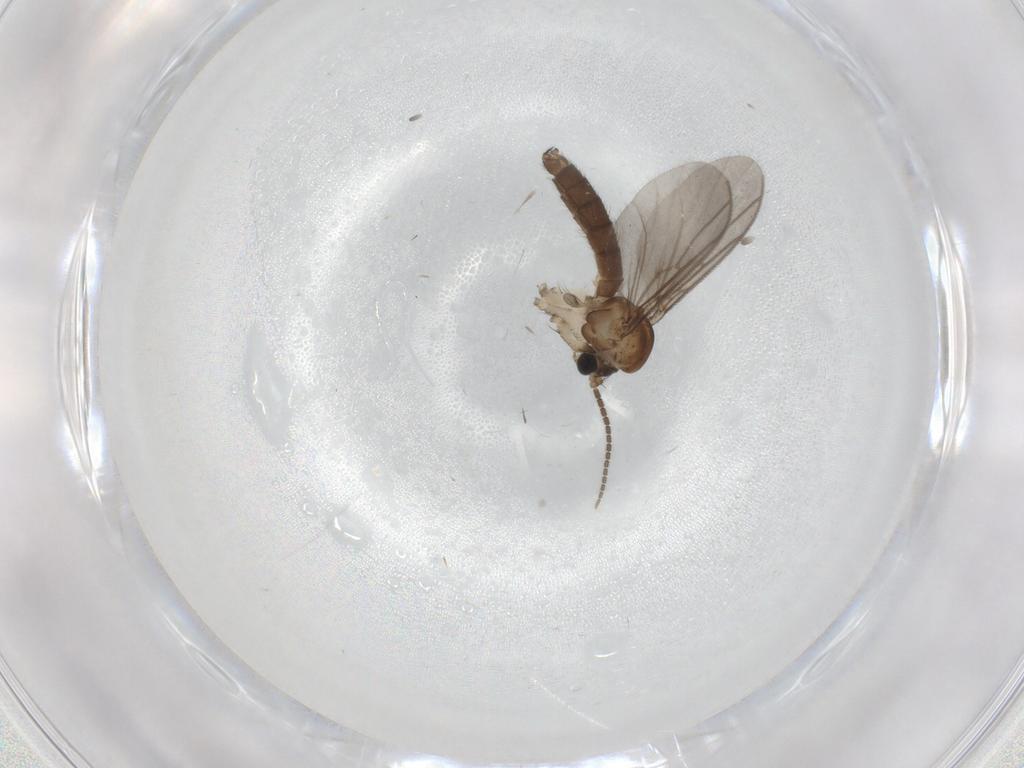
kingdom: Animalia
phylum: Arthropoda
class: Insecta
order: Diptera
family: Mycetophilidae
